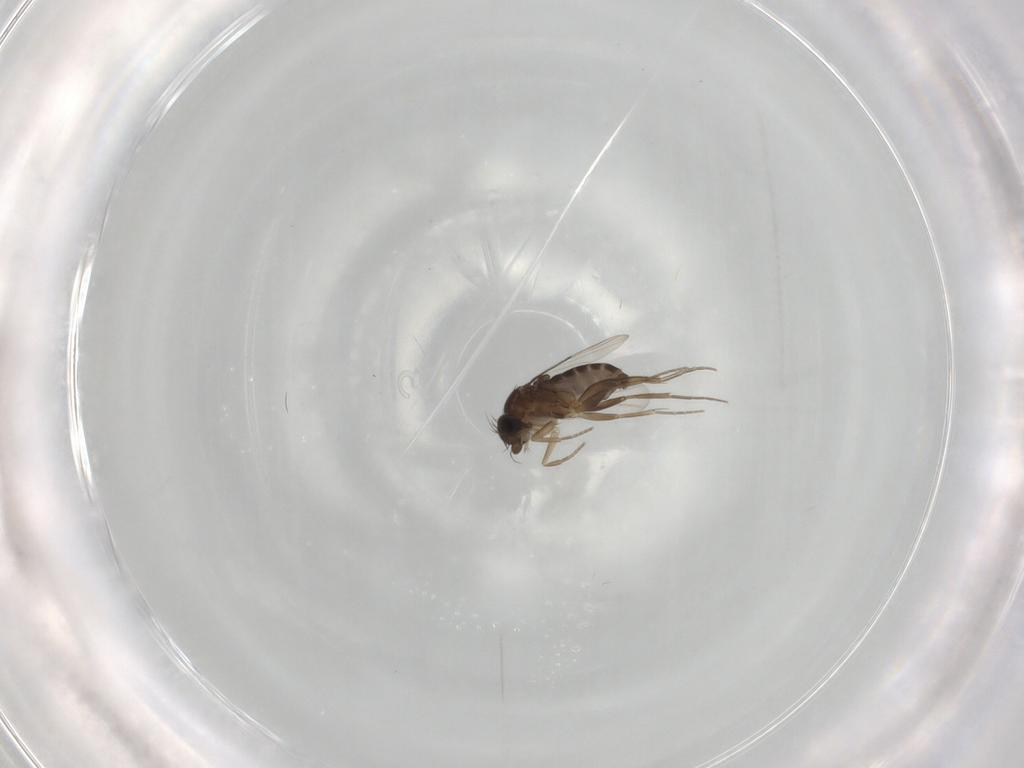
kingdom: Animalia
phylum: Arthropoda
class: Insecta
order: Diptera
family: Phoridae
